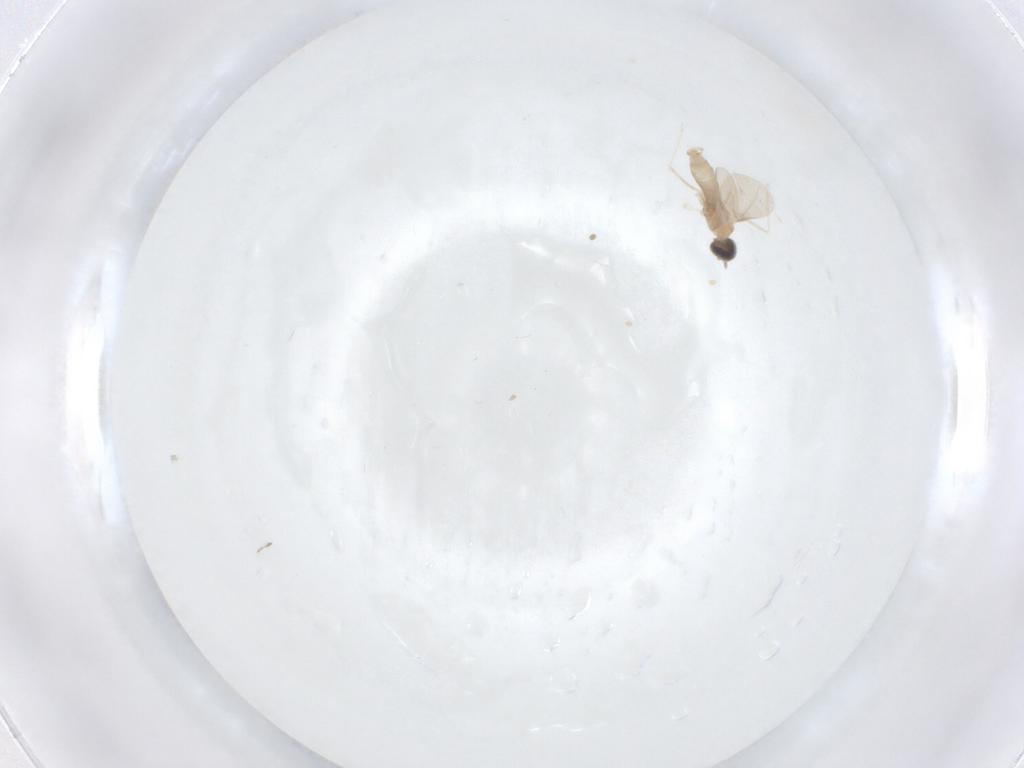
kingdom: Animalia
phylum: Arthropoda
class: Insecta
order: Diptera
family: Cecidomyiidae
